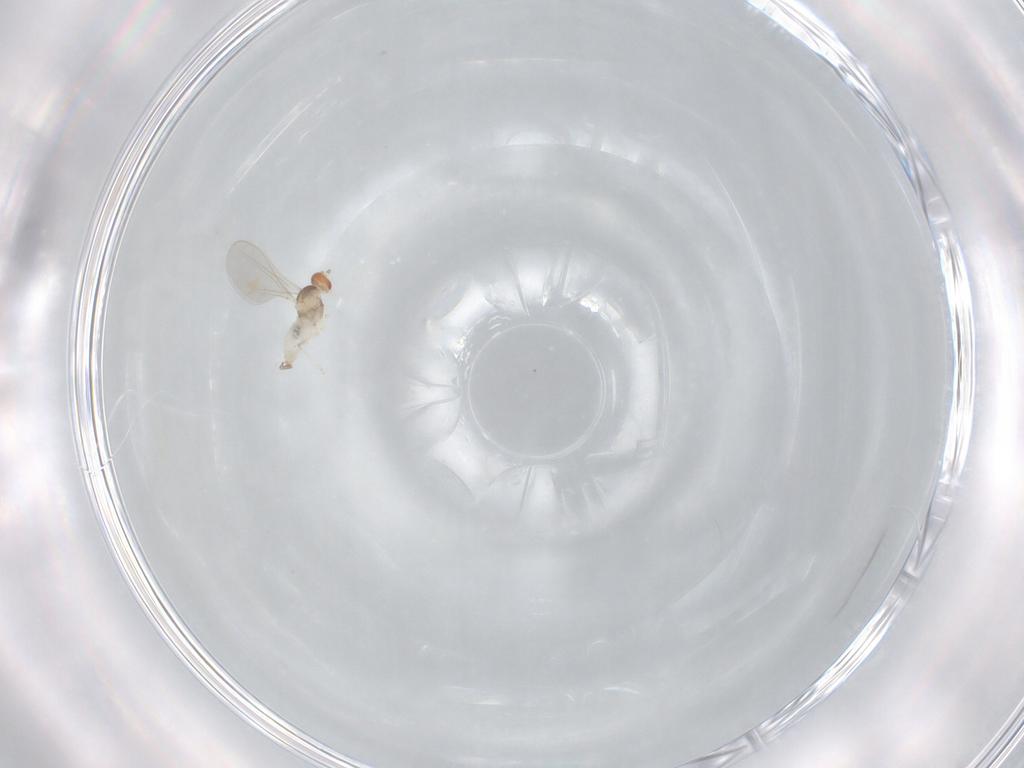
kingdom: Animalia
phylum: Arthropoda
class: Insecta
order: Diptera
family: Cecidomyiidae
